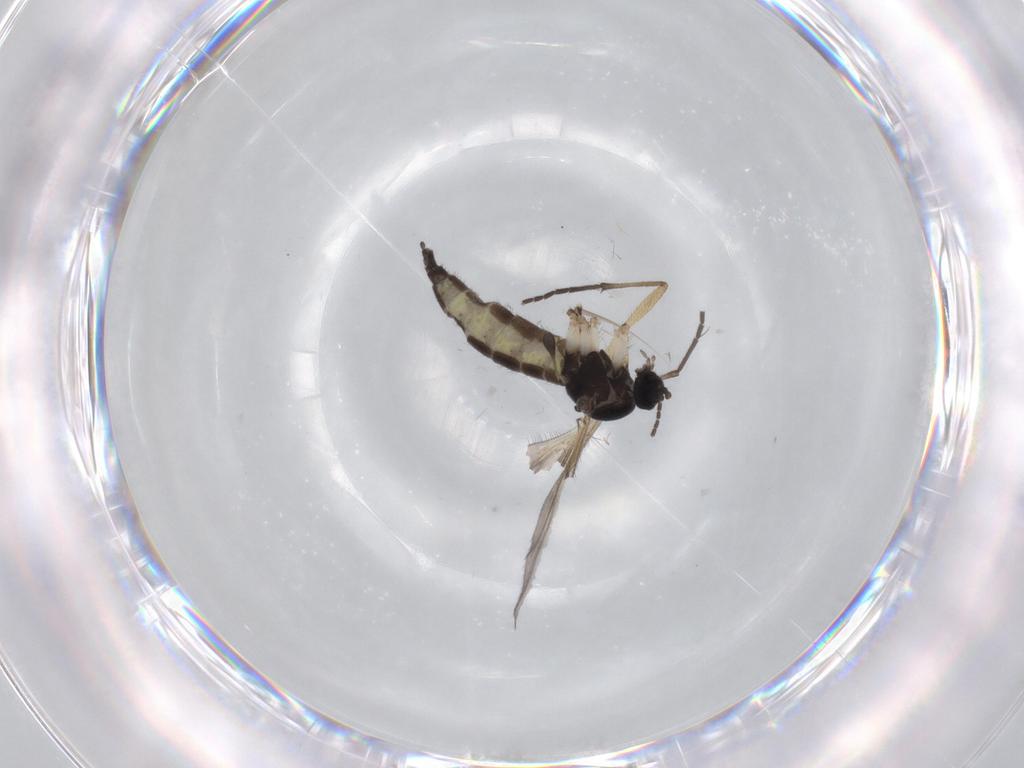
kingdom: Animalia
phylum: Arthropoda
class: Insecta
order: Diptera
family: Sciaridae
